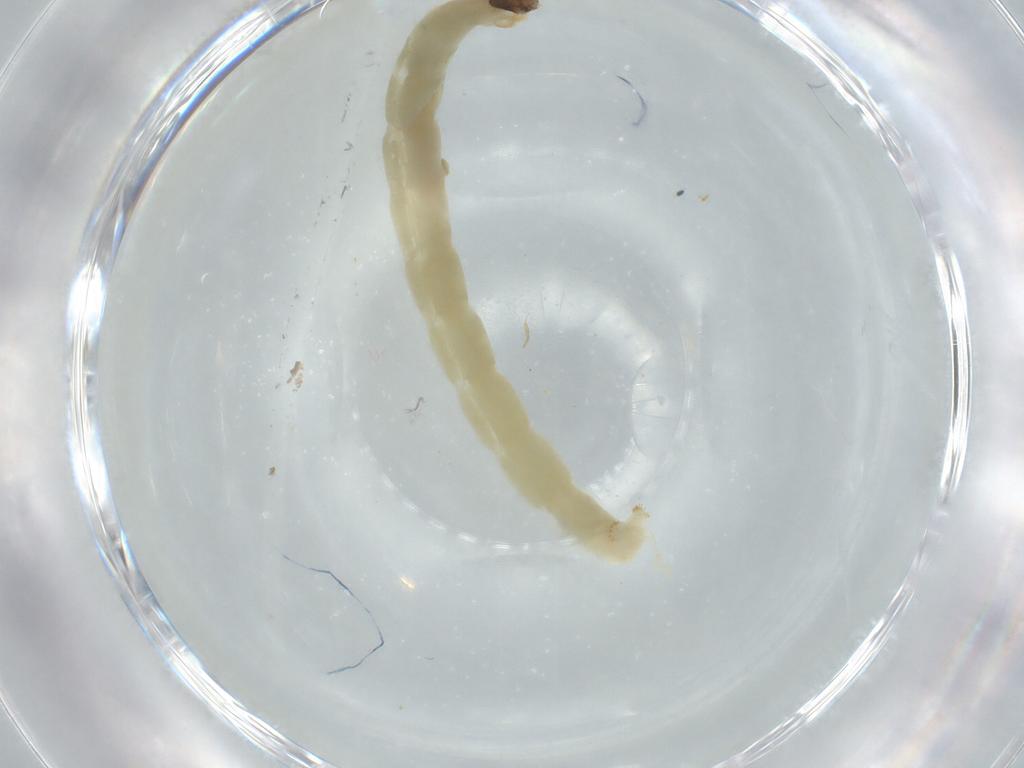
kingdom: Animalia
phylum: Arthropoda
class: Insecta
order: Diptera
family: Chironomidae
